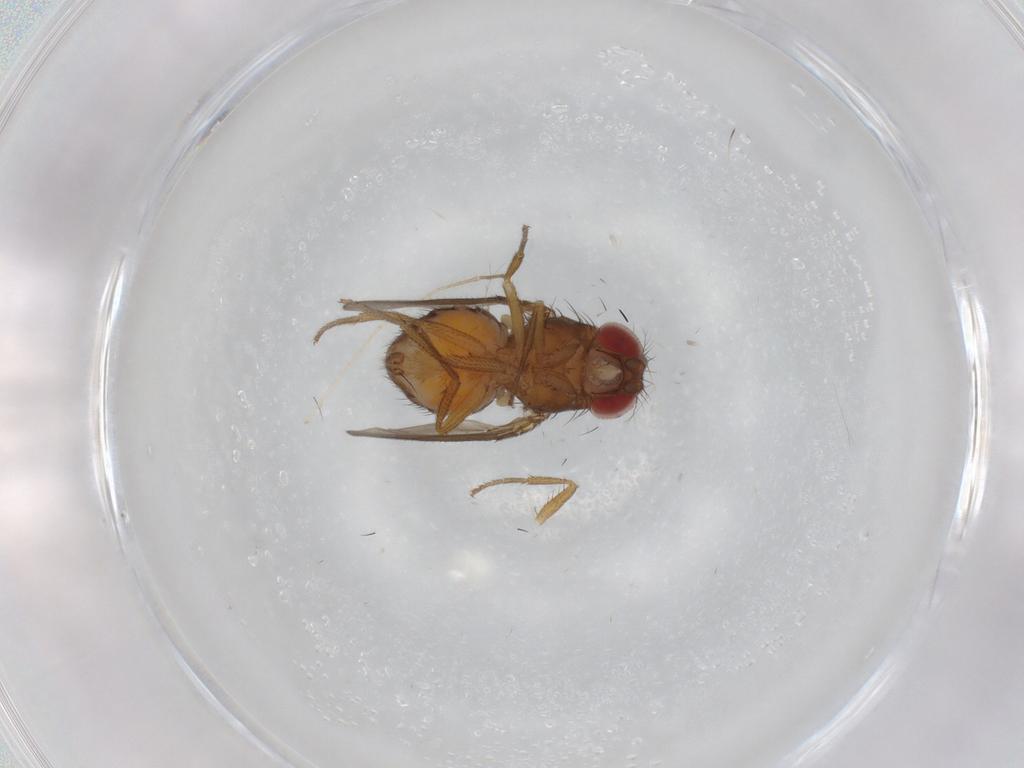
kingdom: Animalia
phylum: Arthropoda
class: Insecta
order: Diptera
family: Drosophilidae
